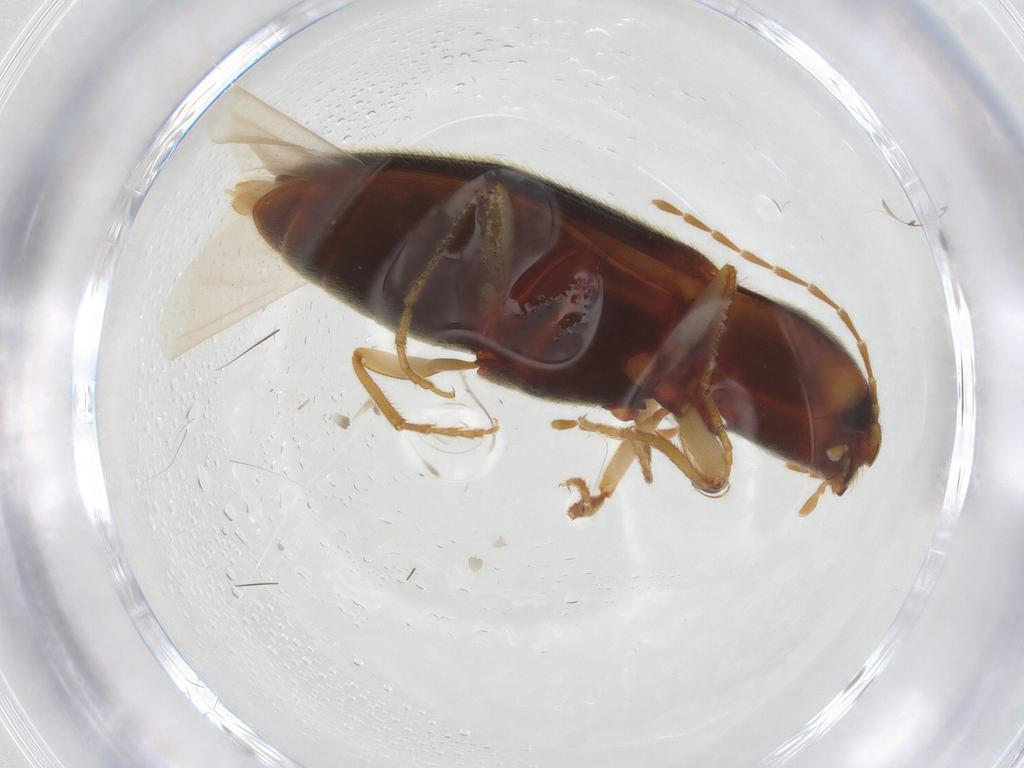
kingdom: Animalia
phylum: Arthropoda
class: Insecta
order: Coleoptera
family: Elateridae
